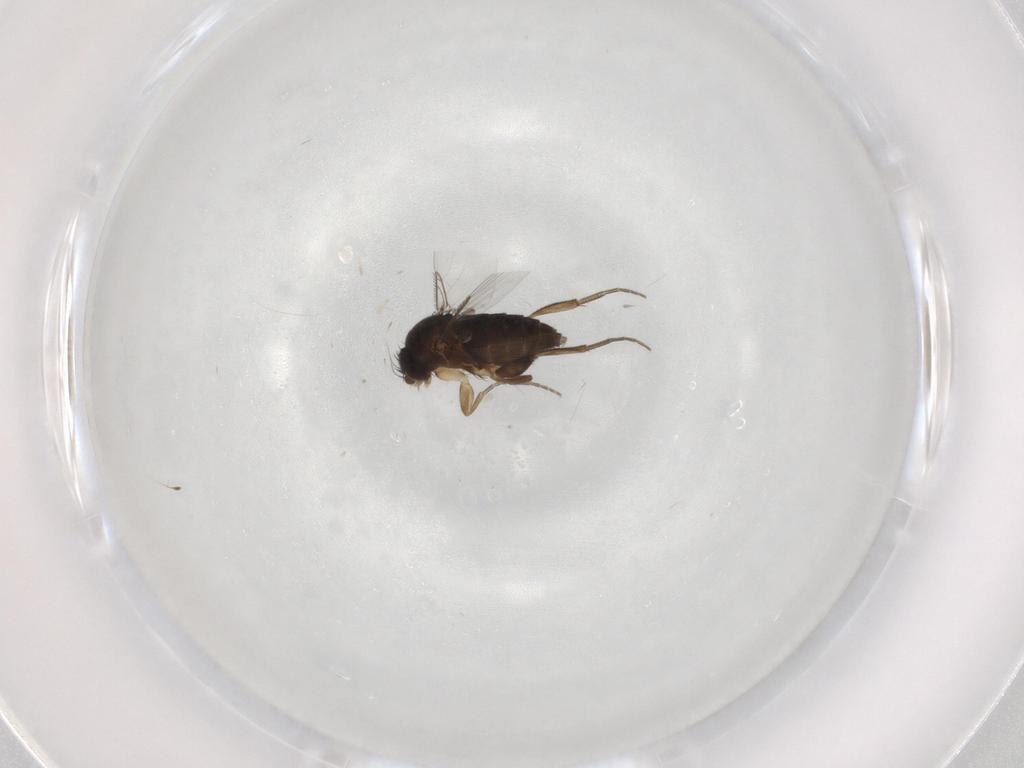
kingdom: Animalia
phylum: Arthropoda
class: Insecta
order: Diptera
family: Phoridae
